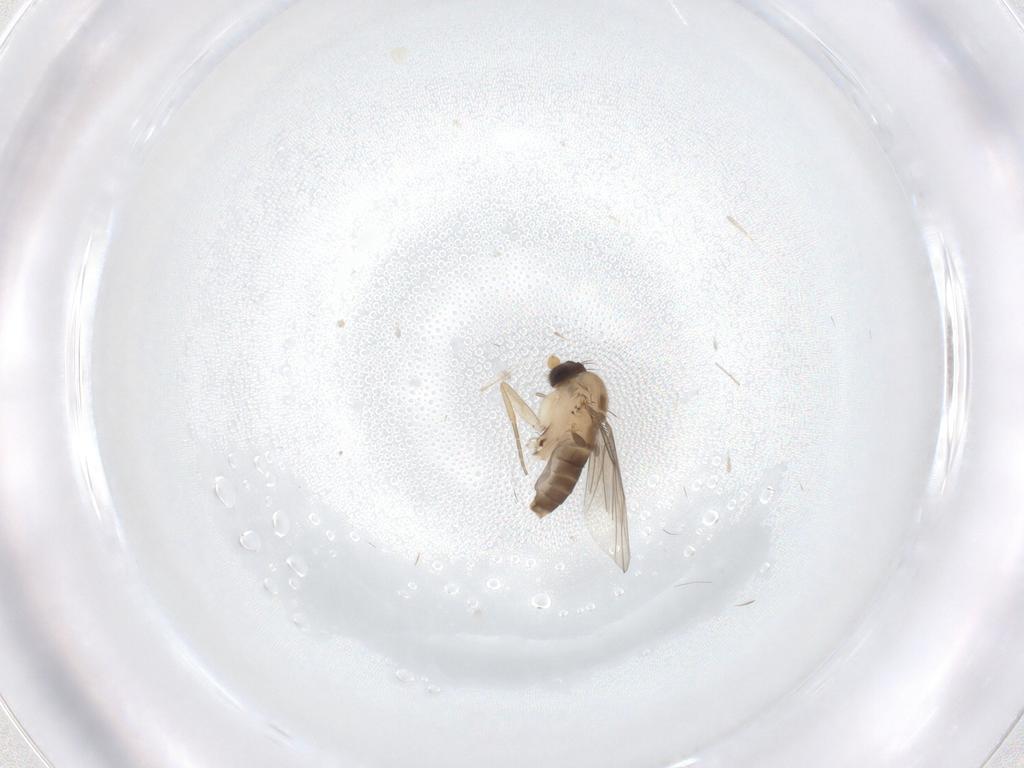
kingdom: Animalia
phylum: Arthropoda
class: Insecta
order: Diptera
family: Phoridae
